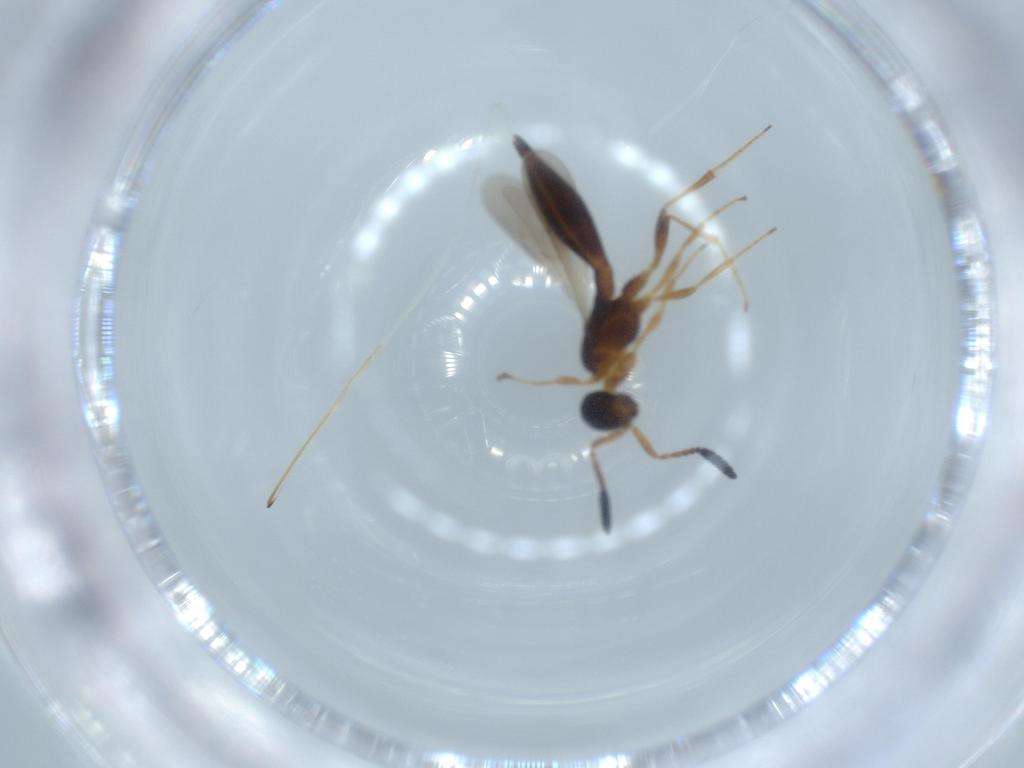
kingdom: Animalia
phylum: Arthropoda
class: Insecta
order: Hymenoptera
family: Scelionidae
